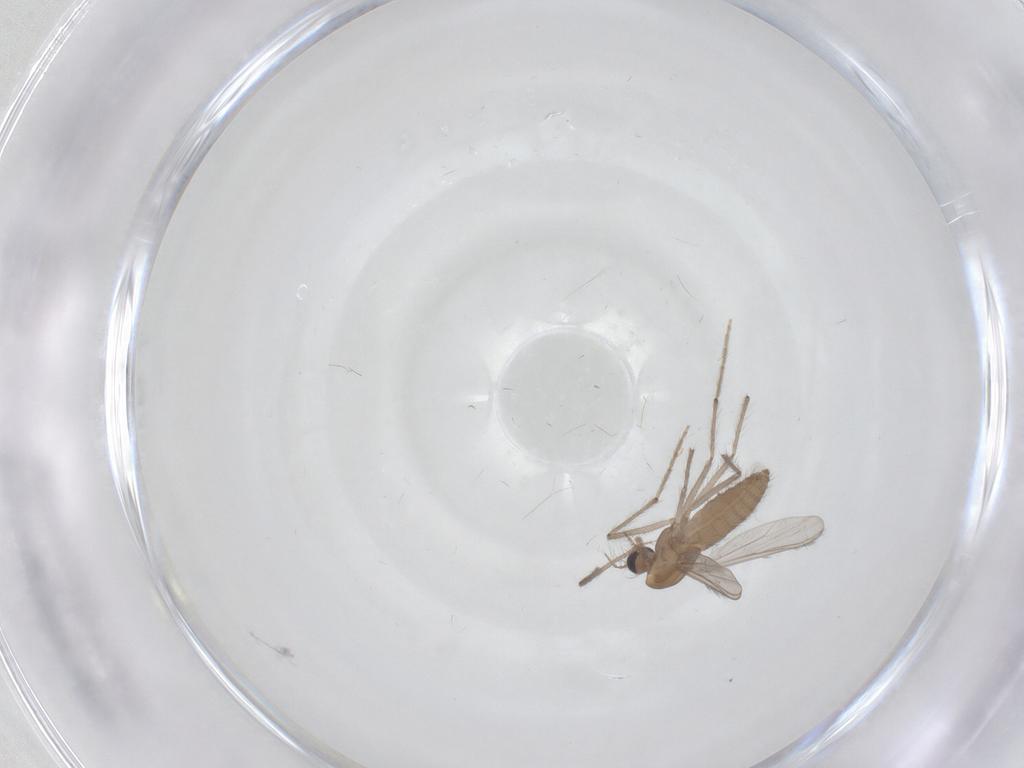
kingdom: Animalia
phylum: Arthropoda
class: Insecta
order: Diptera
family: Chironomidae
